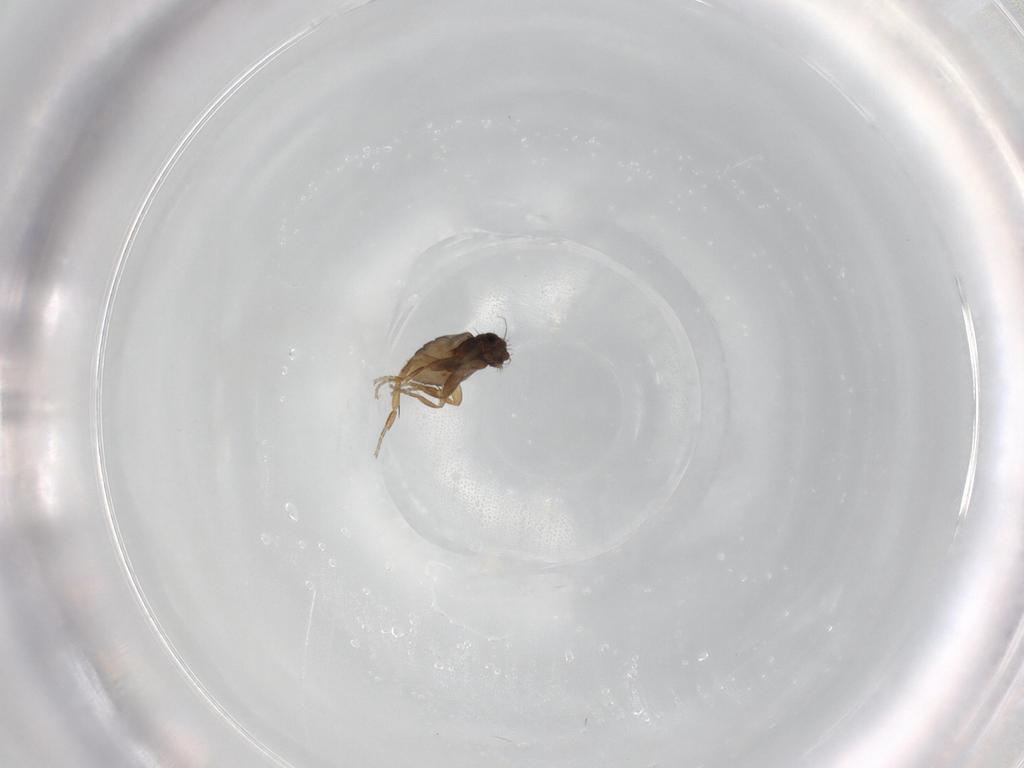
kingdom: Animalia
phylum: Arthropoda
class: Insecta
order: Diptera
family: Phoridae
